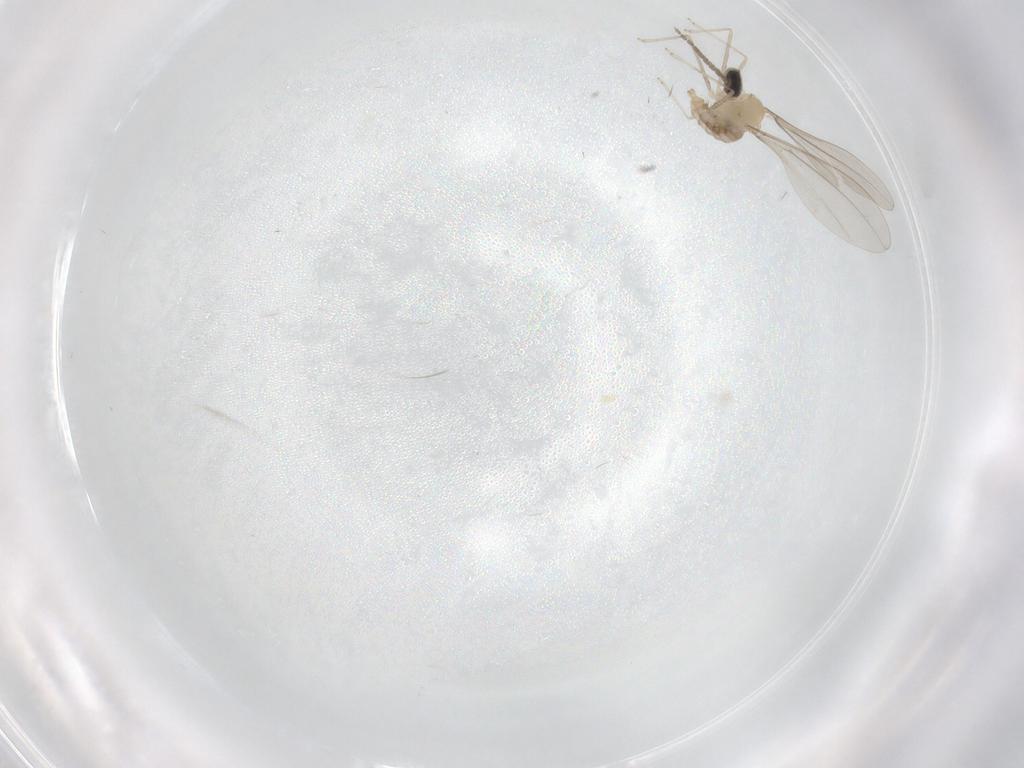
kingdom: Animalia
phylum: Arthropoda
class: Insecta
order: Diptera
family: Cecidomyiidae
